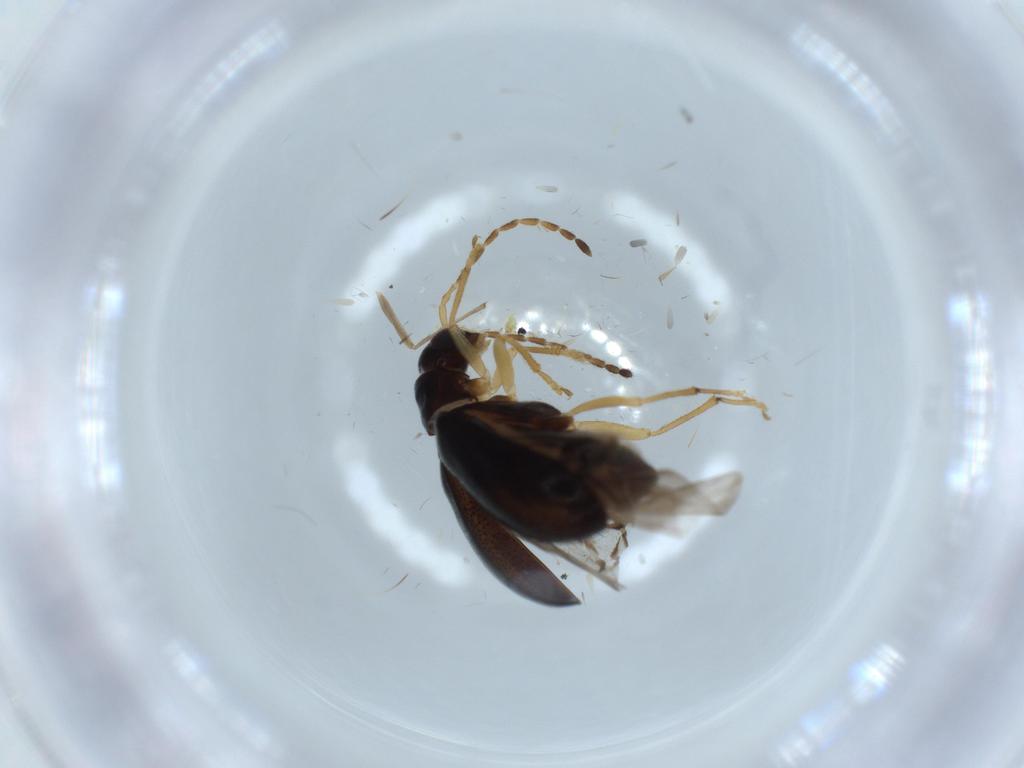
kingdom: Animalia
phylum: Arthropoda
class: Insecta
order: Coleoptera
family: Chrysomelidae
